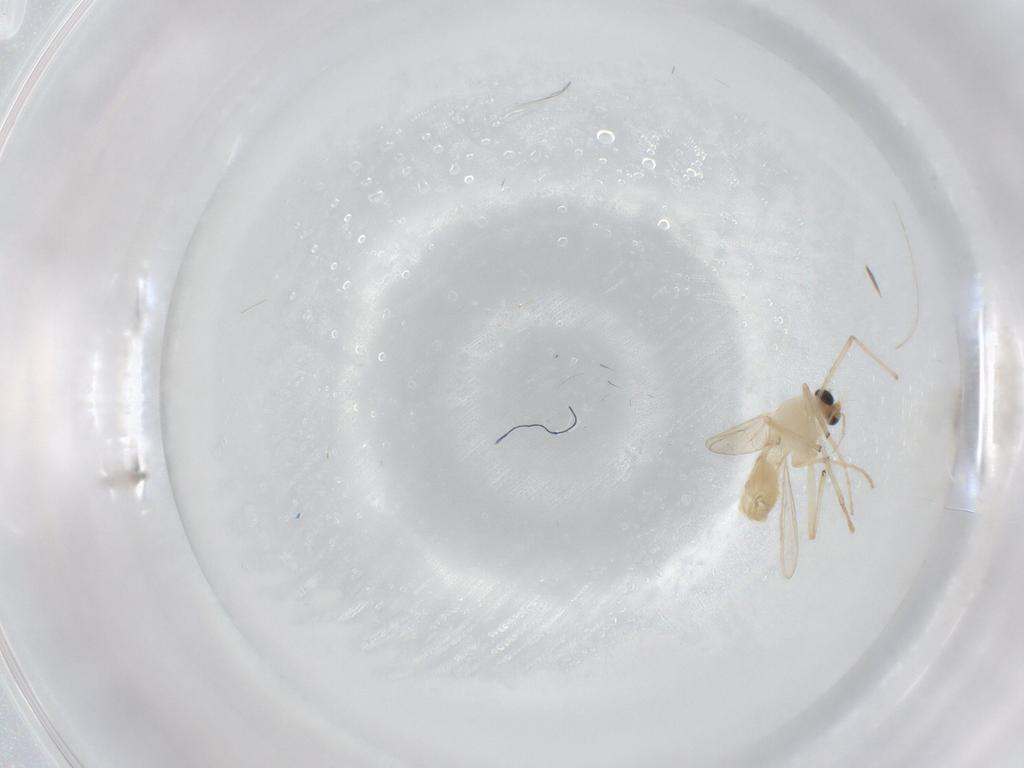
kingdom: Animalia
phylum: Arthropoda
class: Insecta
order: Diptera
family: Chironomidae
